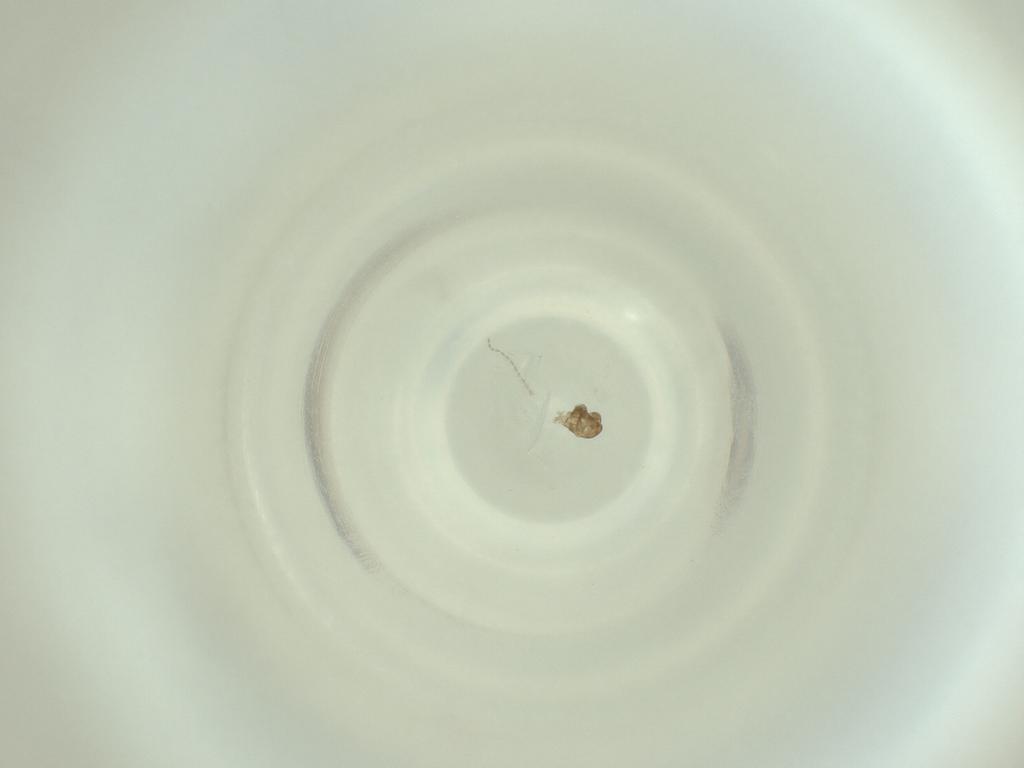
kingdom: Animalia
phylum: Arthropoda
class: Insecta
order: Diptera
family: Cecidomyiidae
